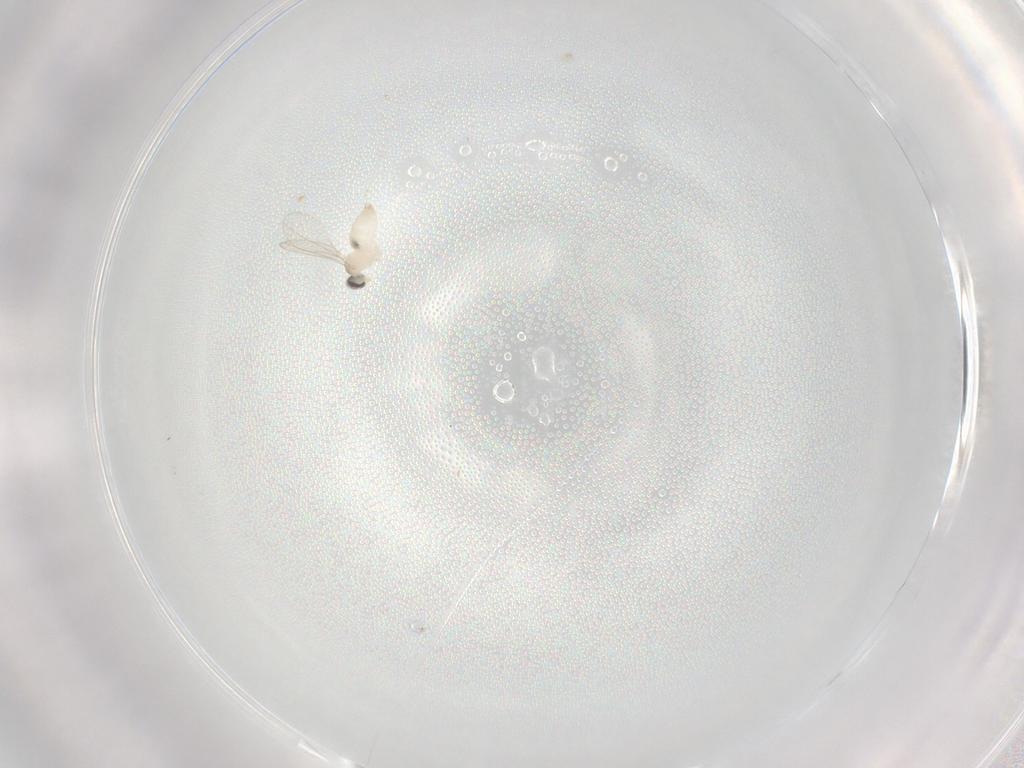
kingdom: Animalia
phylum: Arthropoda
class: Insecta
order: Diptera
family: Cecidomyiidae
